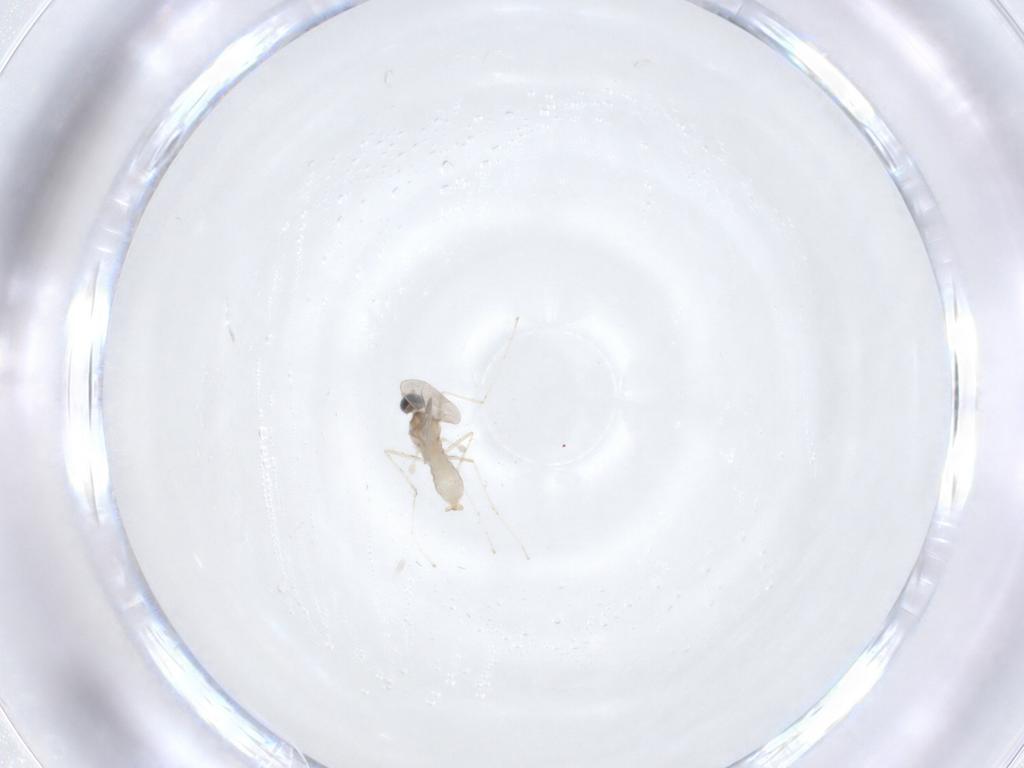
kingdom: Animalia
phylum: Arthropoda
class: Insecta
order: Diptera
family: Cecidomyiidae
